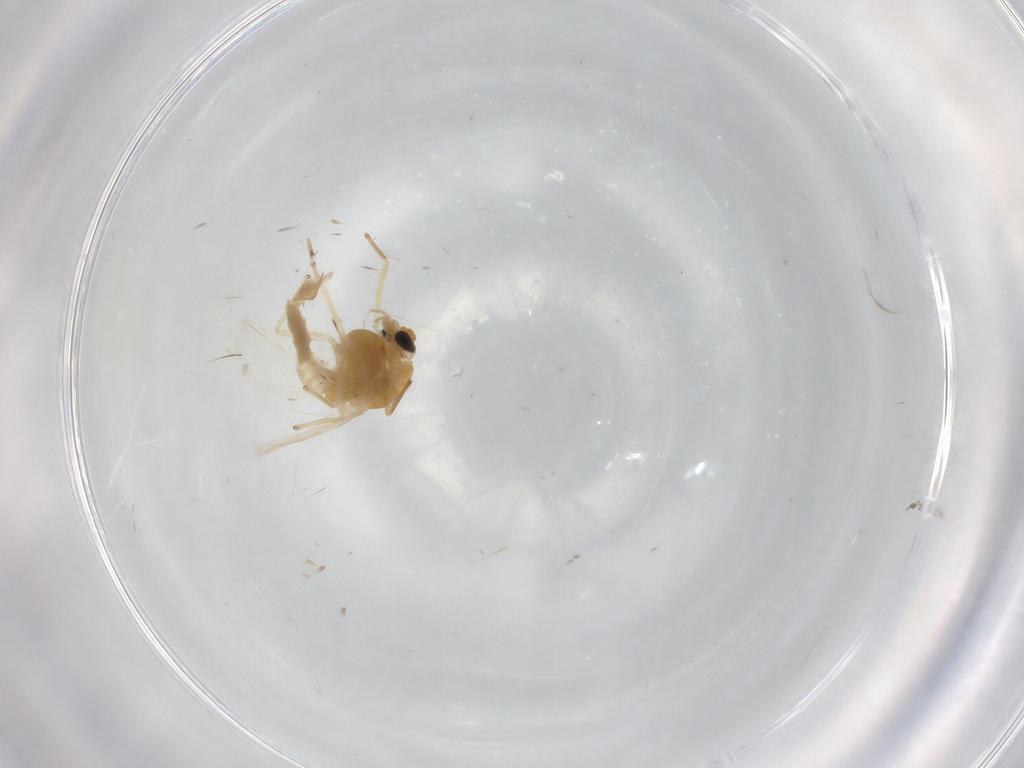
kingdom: Animalia
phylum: Arthropoda
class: Insecta
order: Diptera
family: Chironomidae
